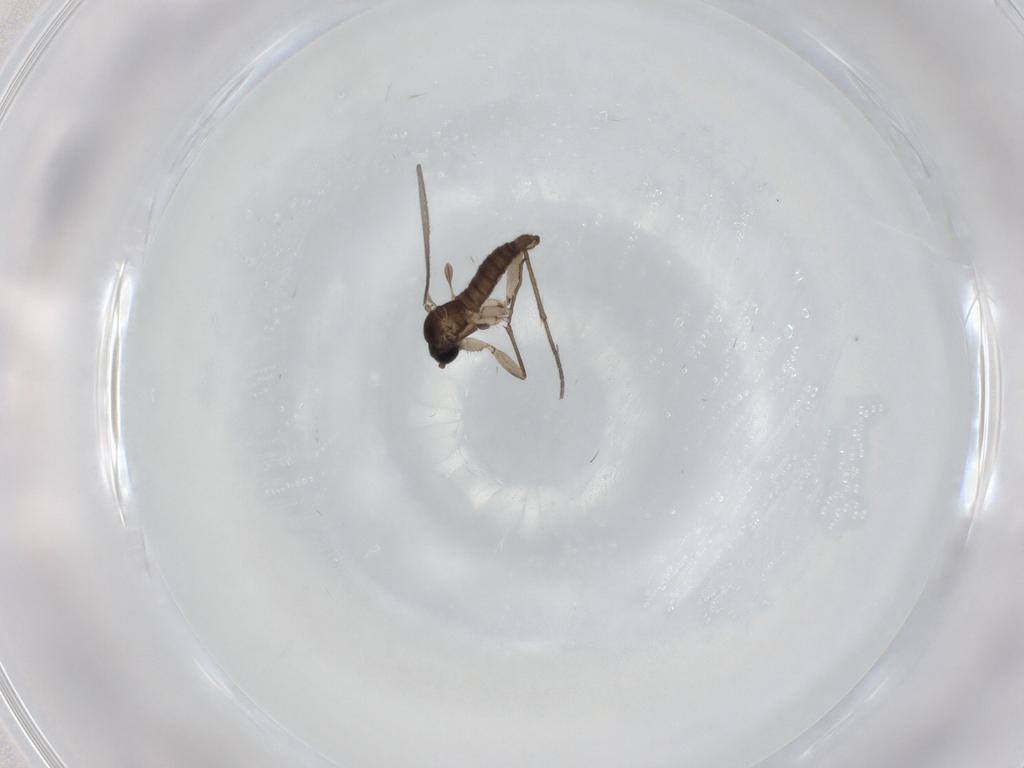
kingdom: Animalia
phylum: Arthropoda
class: Insecta
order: Diptera
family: Sciaridae
